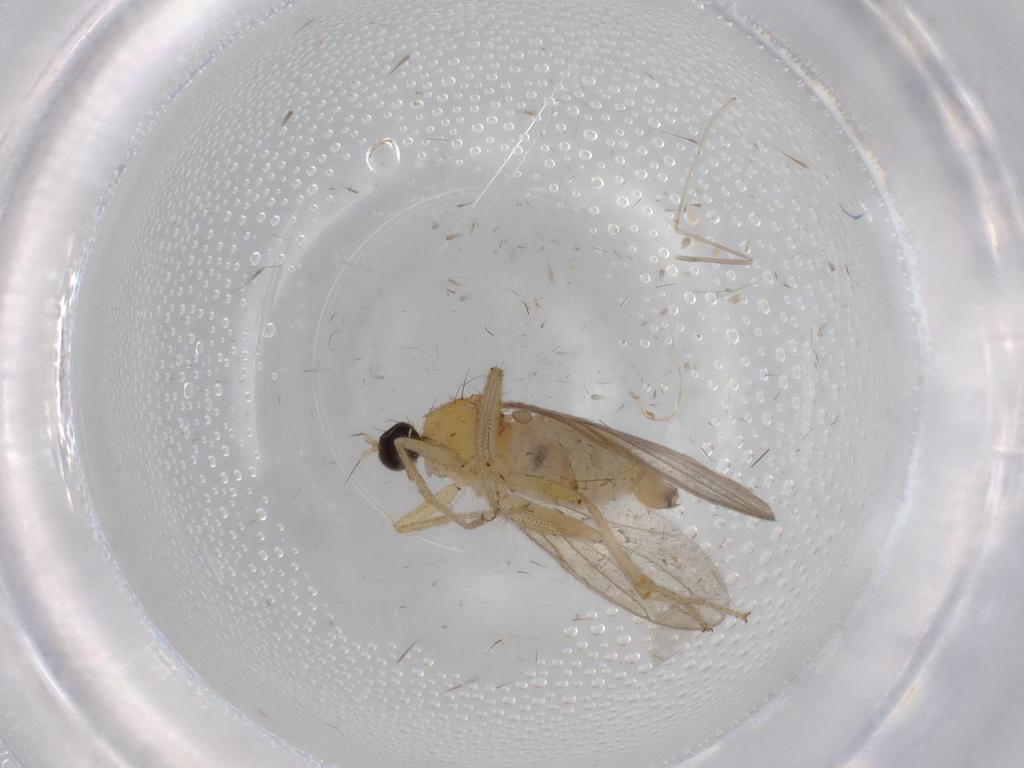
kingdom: Animalia
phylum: Arthropoda
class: Insecta
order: Diptera
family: Hybotidae
